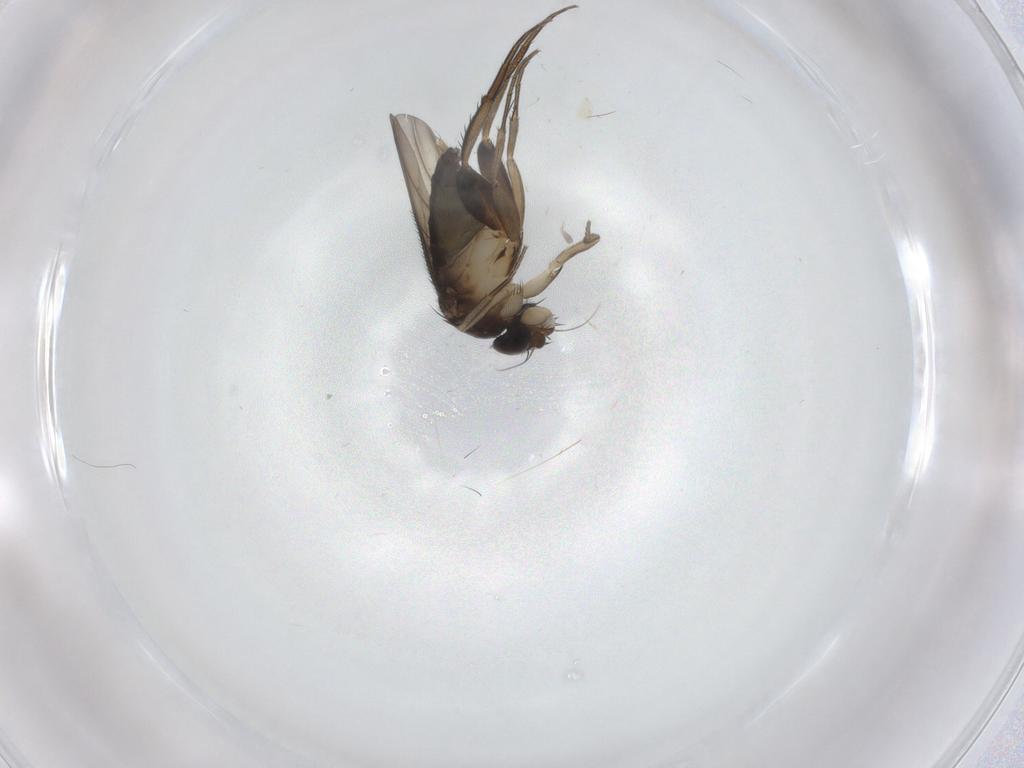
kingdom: Animalia
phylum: Arthropoda
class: Insecta
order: Diptera
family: Phoridae
